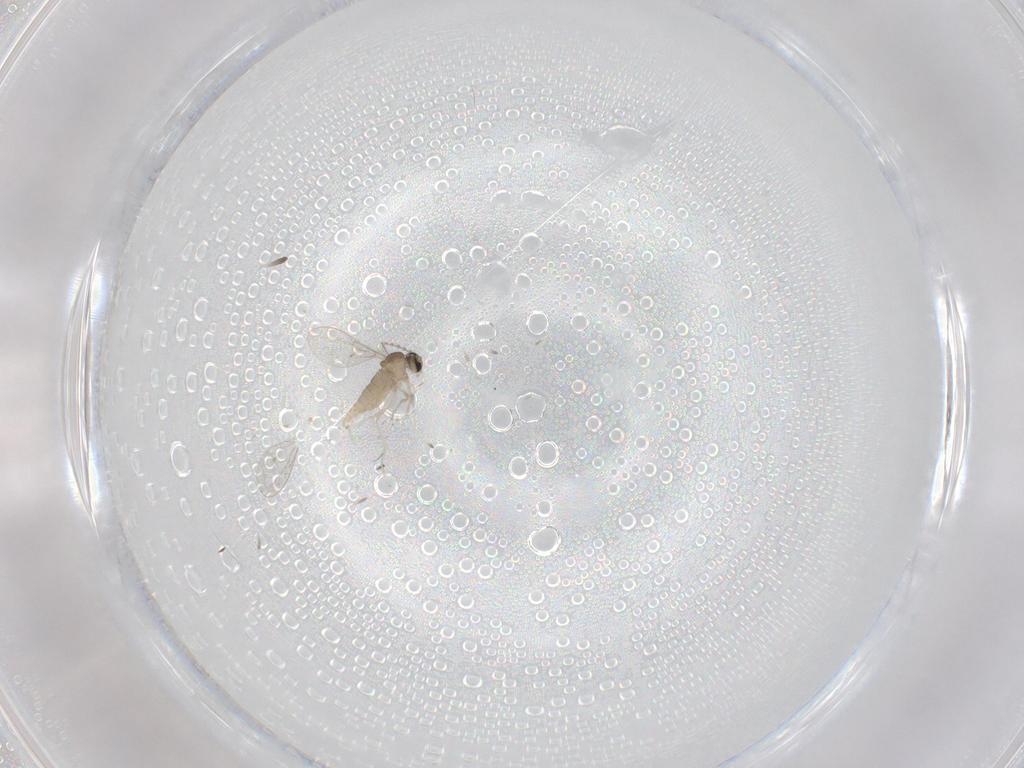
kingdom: Animalia
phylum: Arthropoda
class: Insecta
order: Diptera
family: Cecidomyiidae
